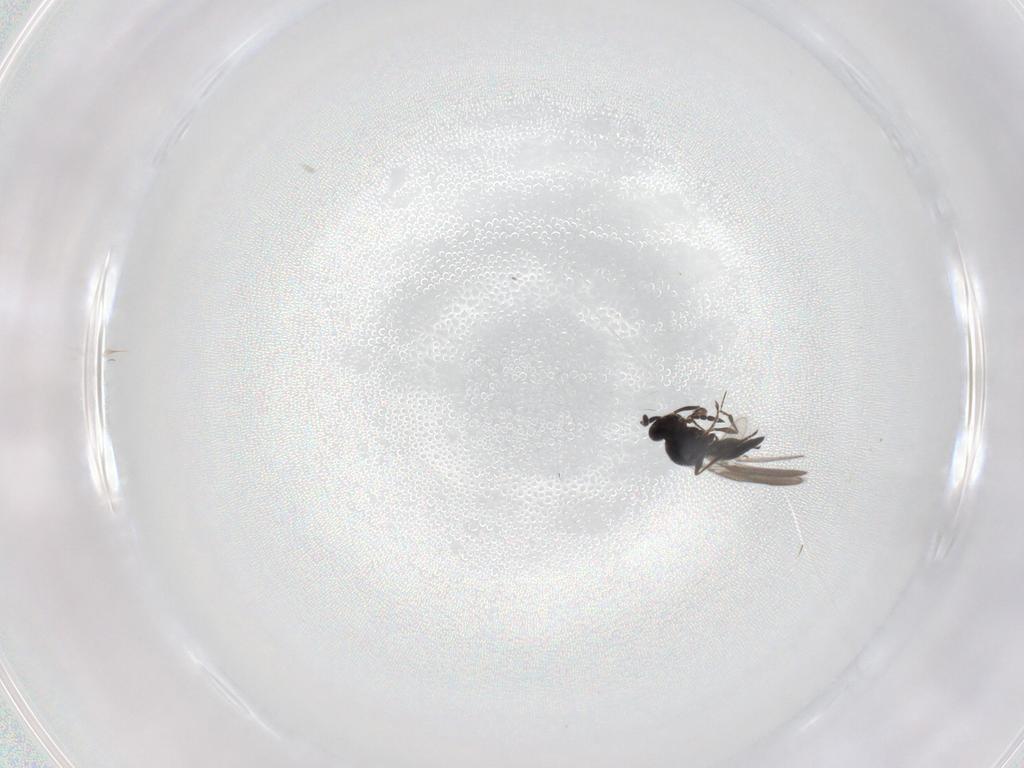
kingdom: Animalia
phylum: Arthropoda
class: Insecta
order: Hymenoptera
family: Platygastridae
